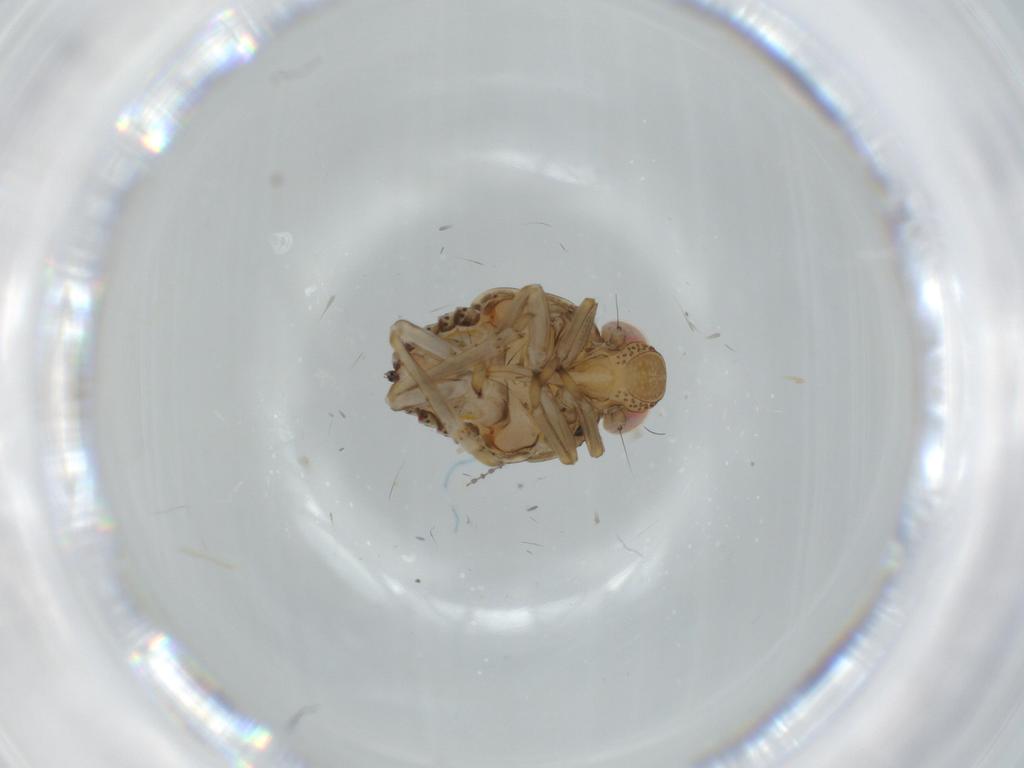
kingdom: Animalia
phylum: Arthropoda
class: Insecta
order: Hemiptera
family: Issidae
